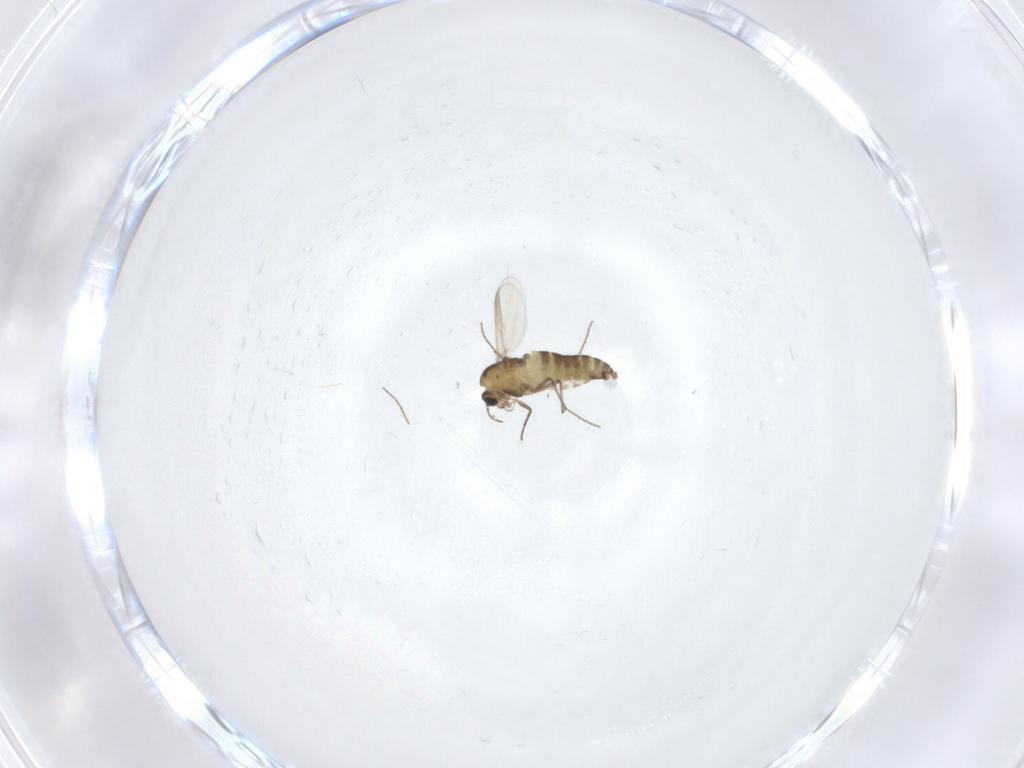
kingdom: Animalia
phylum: Arthropoda
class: Insecta
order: Diptera
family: Chironomidae
